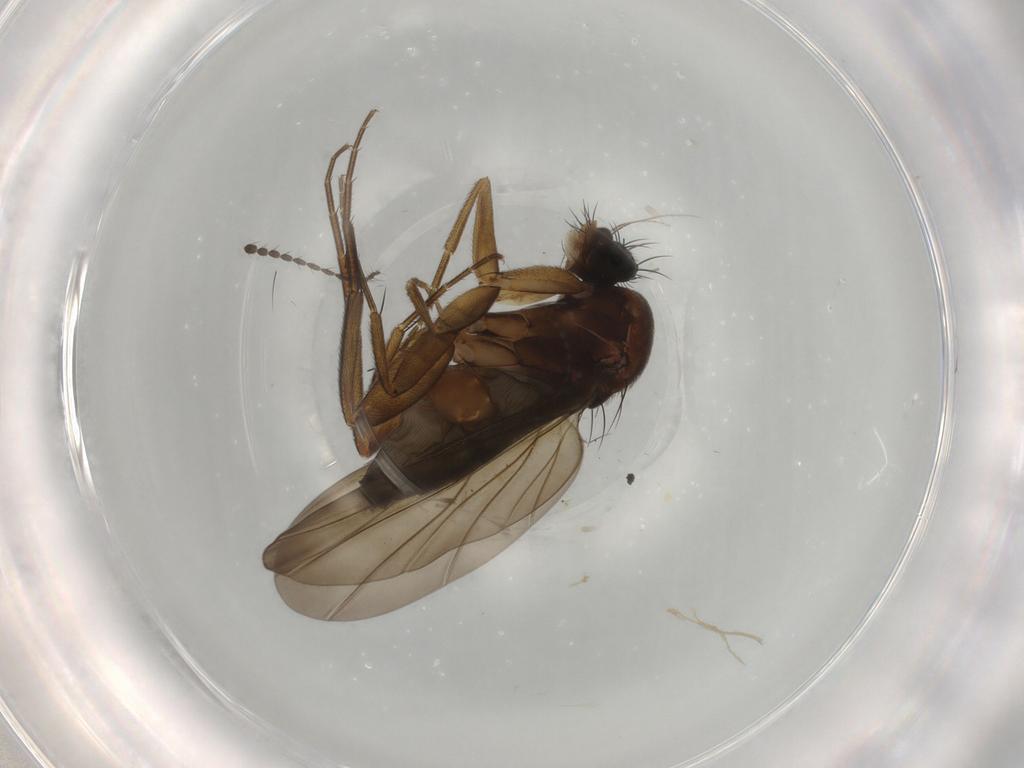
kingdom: Animalia
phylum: Arthropoda
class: Insecta
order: Diptera
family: Phoridae
